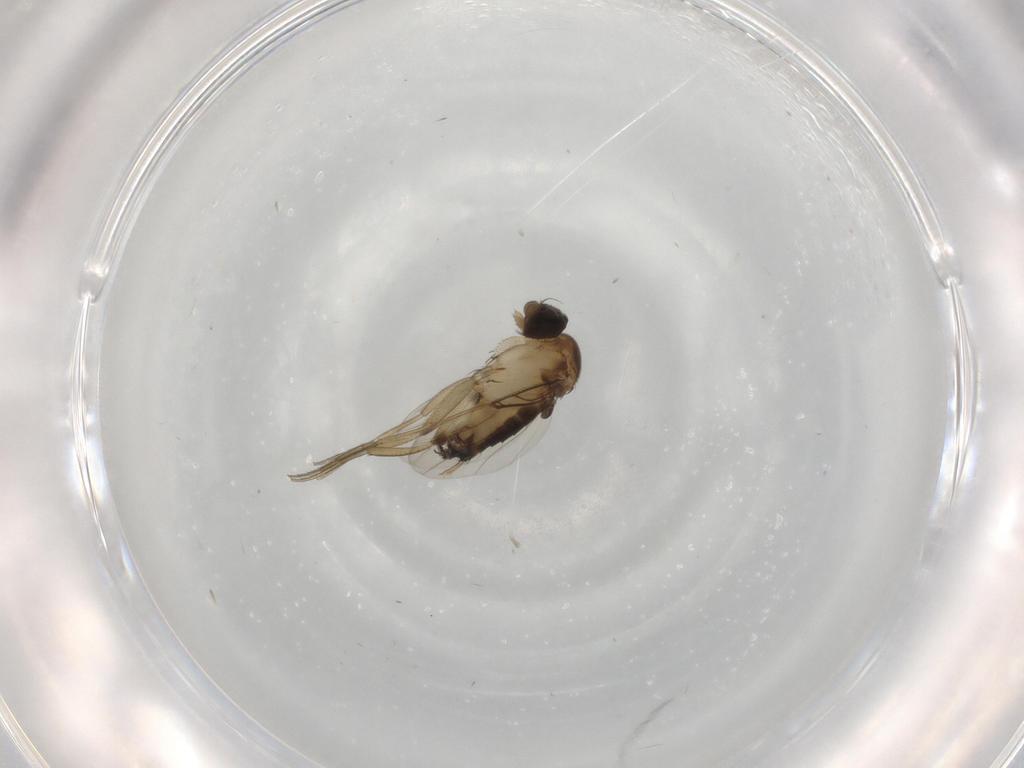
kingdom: Animalia
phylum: Arthropoda
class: Insecta
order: Diptera
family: Phoridae
